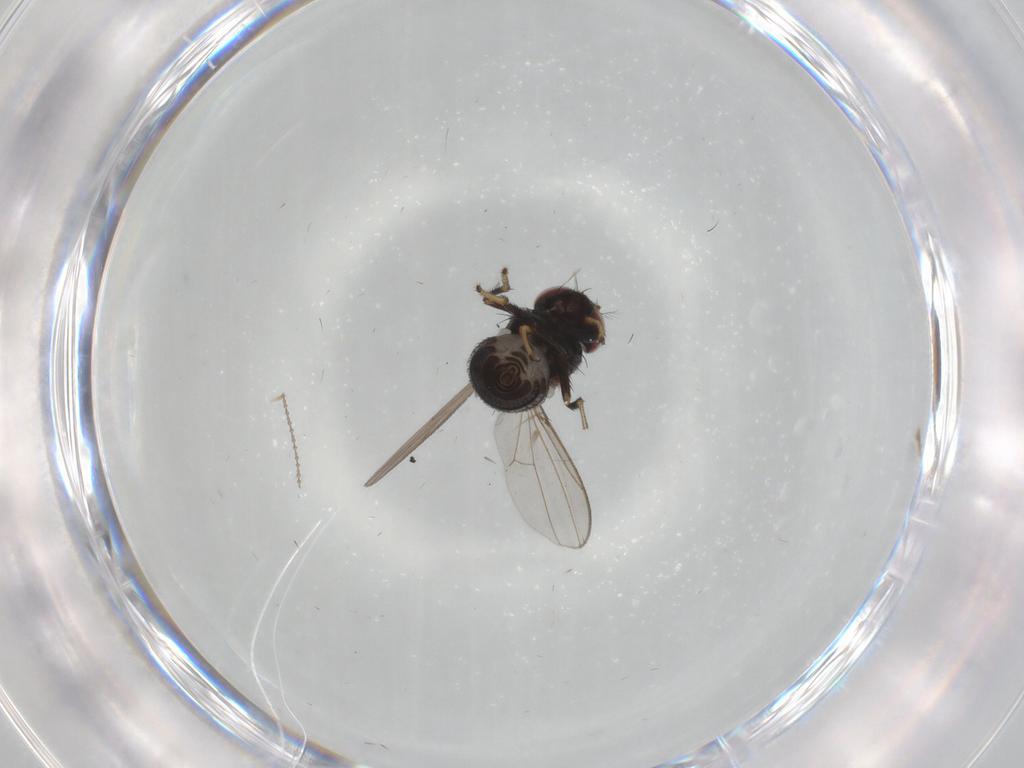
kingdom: Animalia
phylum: Arthropoda
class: Insecta
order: Diptera
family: Ephydridae
